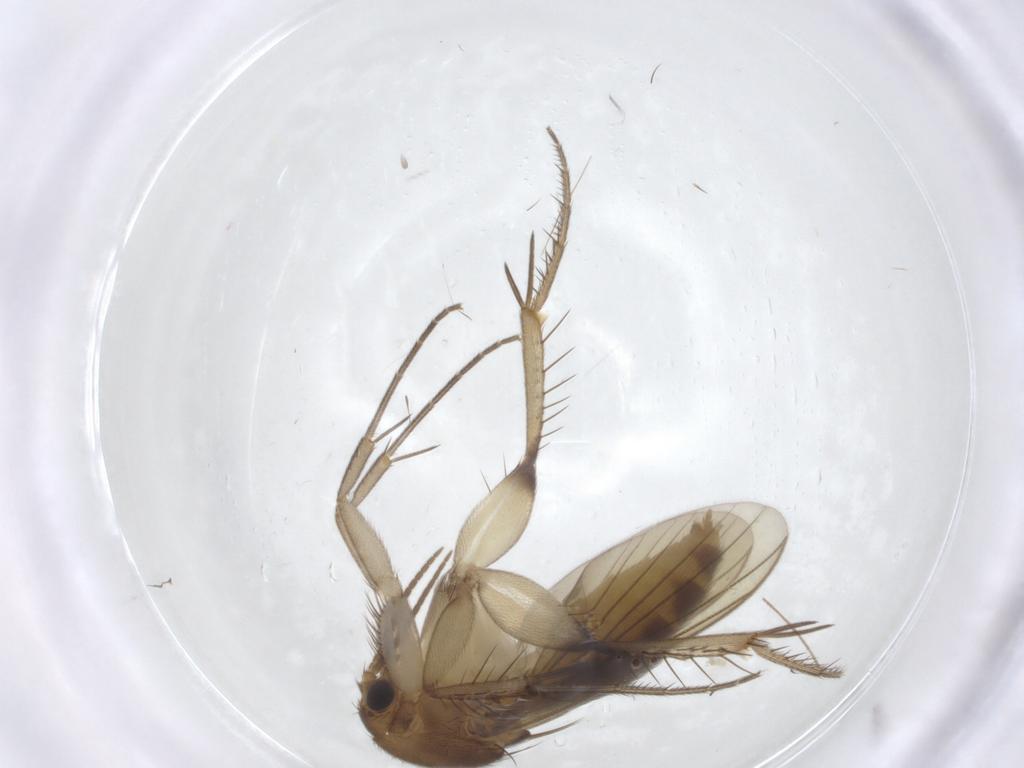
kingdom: Animalia
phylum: Arthropoda
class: Insecta
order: Diptera
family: Mycetophilidae
